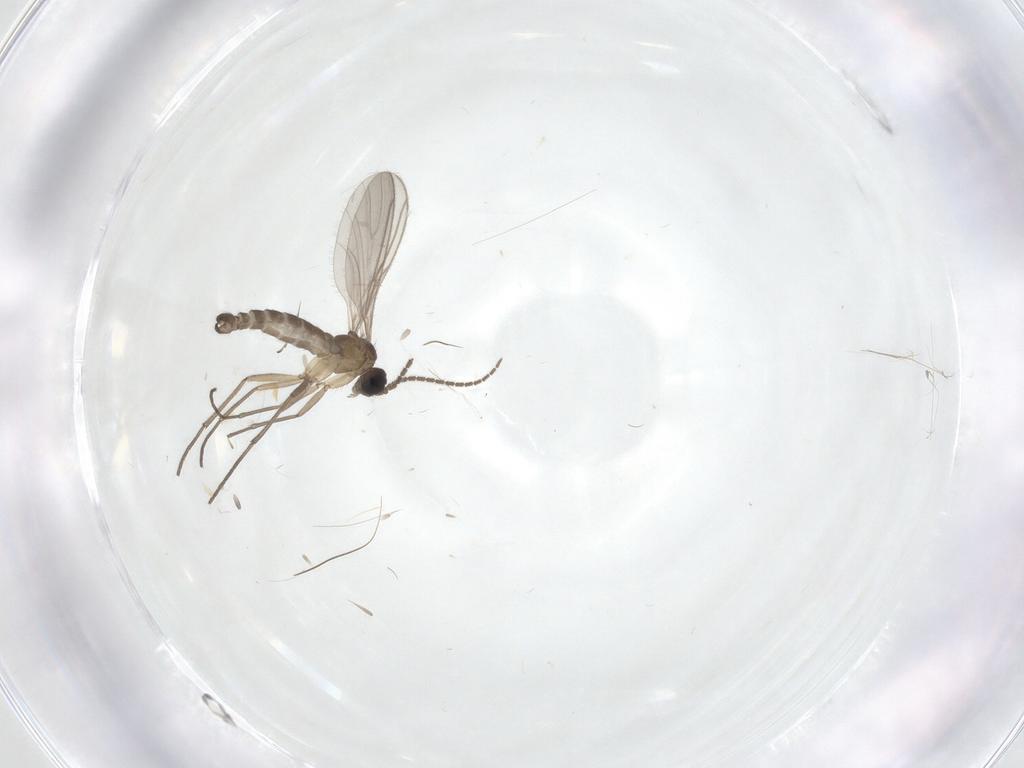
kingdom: Animalia
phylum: Arthropoda
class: Insecta
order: Diptera
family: Sciaridae
